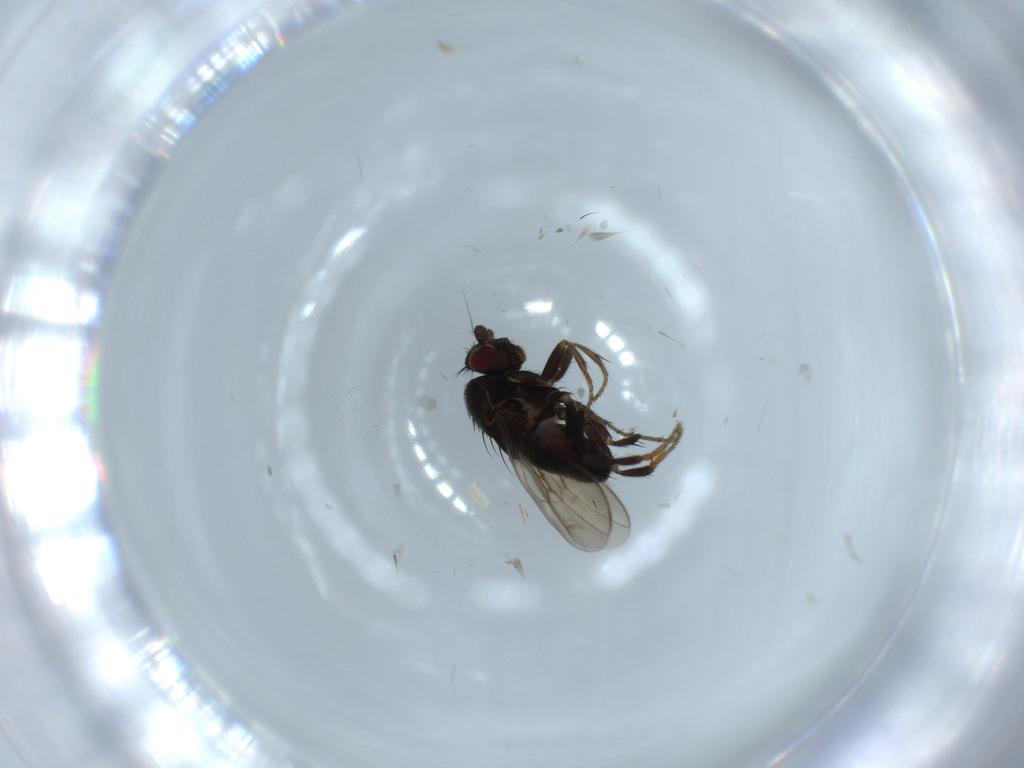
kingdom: Animalia
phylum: Arthropoda
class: Insecta
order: Diptera
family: Sphaeroceridae
